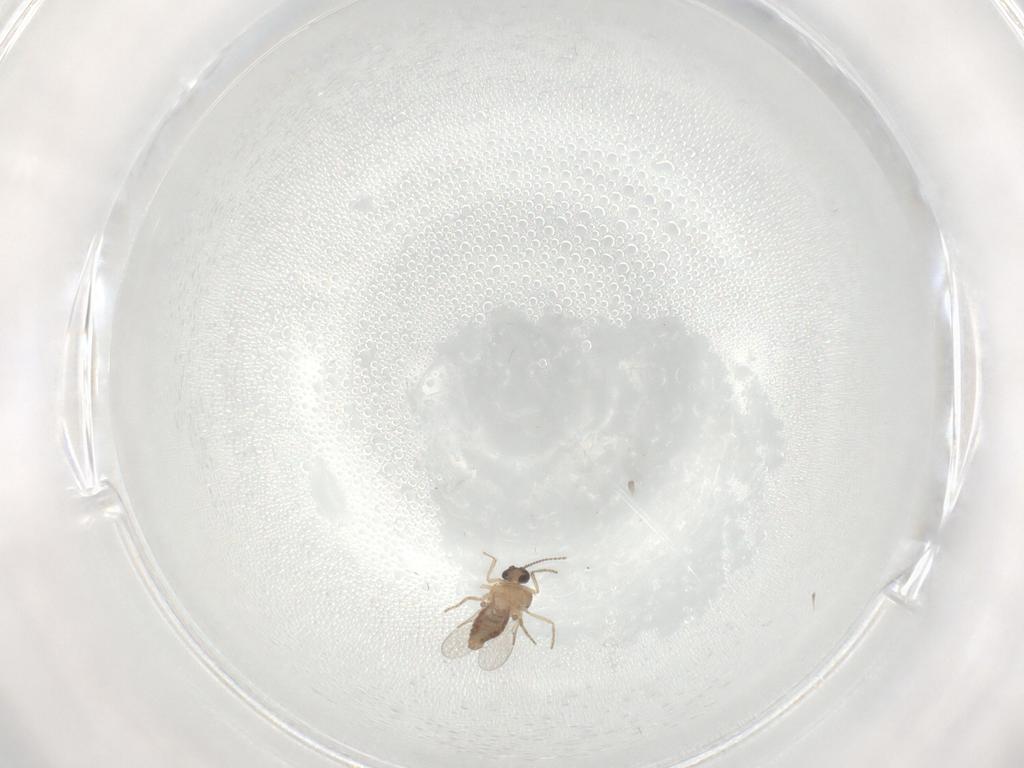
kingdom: Animalia
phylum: Arthropoda
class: Insecta
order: Diptera
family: Ceratopogonidae
